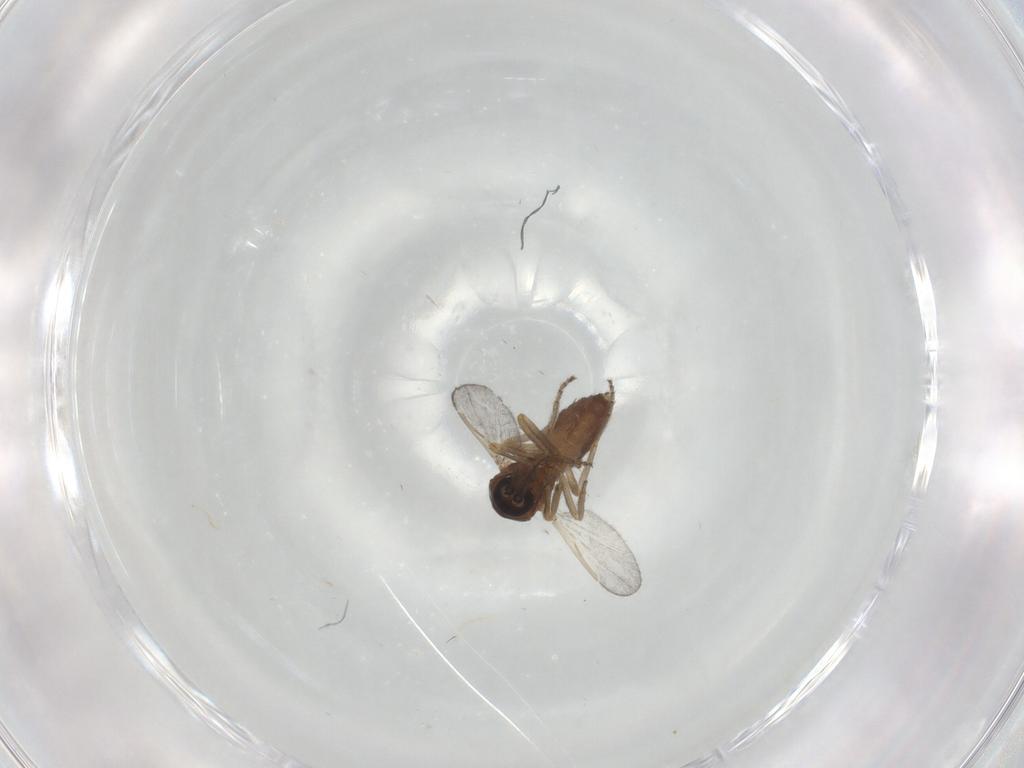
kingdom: Animalia
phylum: Arthropoda
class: Insecta
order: Diptera
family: Ceratopogonidae
